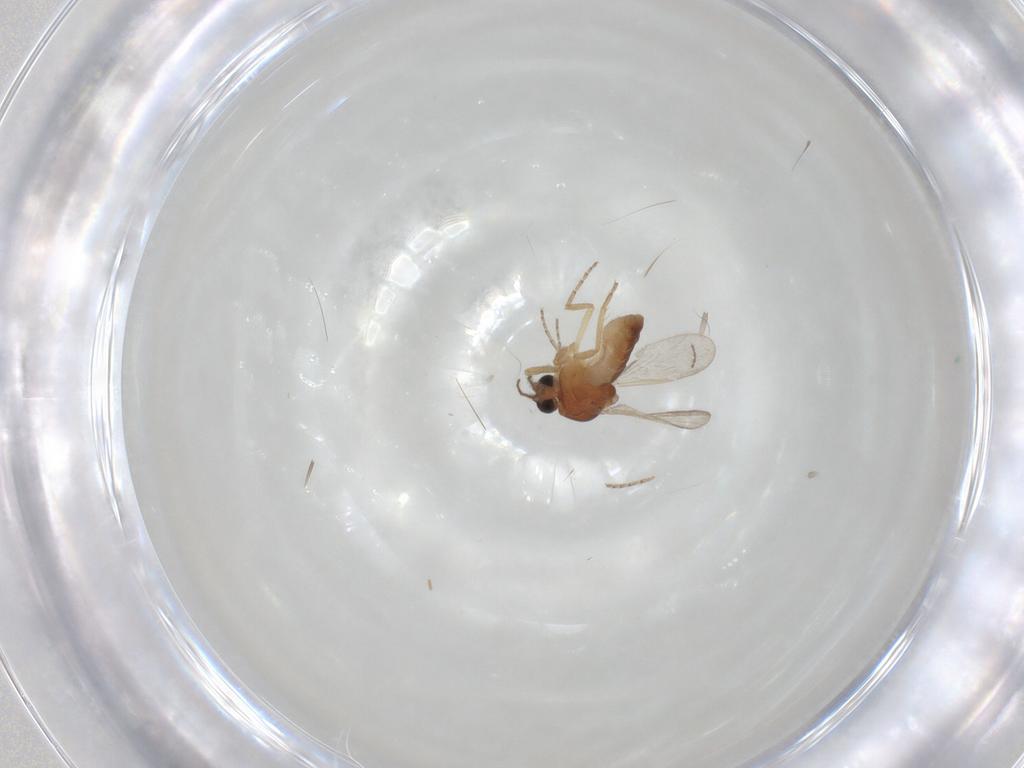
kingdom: Animalia
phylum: Arthropoda
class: Insecta
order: Diptera
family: Ceratopogonidae
